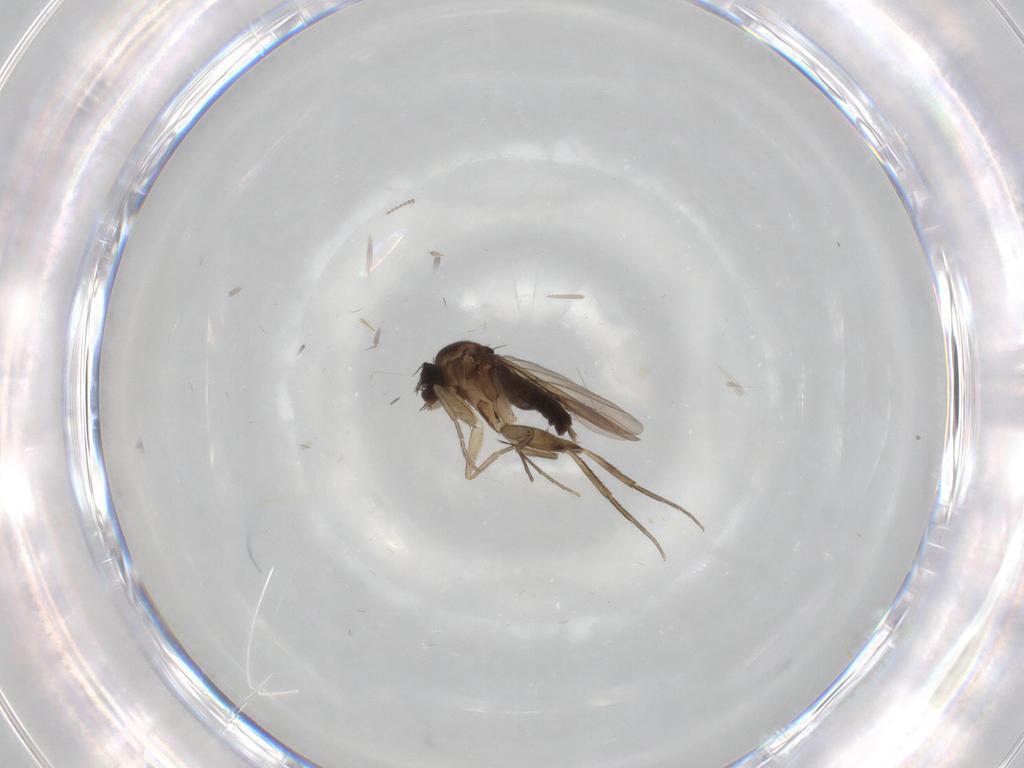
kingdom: Animalia
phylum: Arthropoda
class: Insecta
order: Diptera
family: Phoridae
